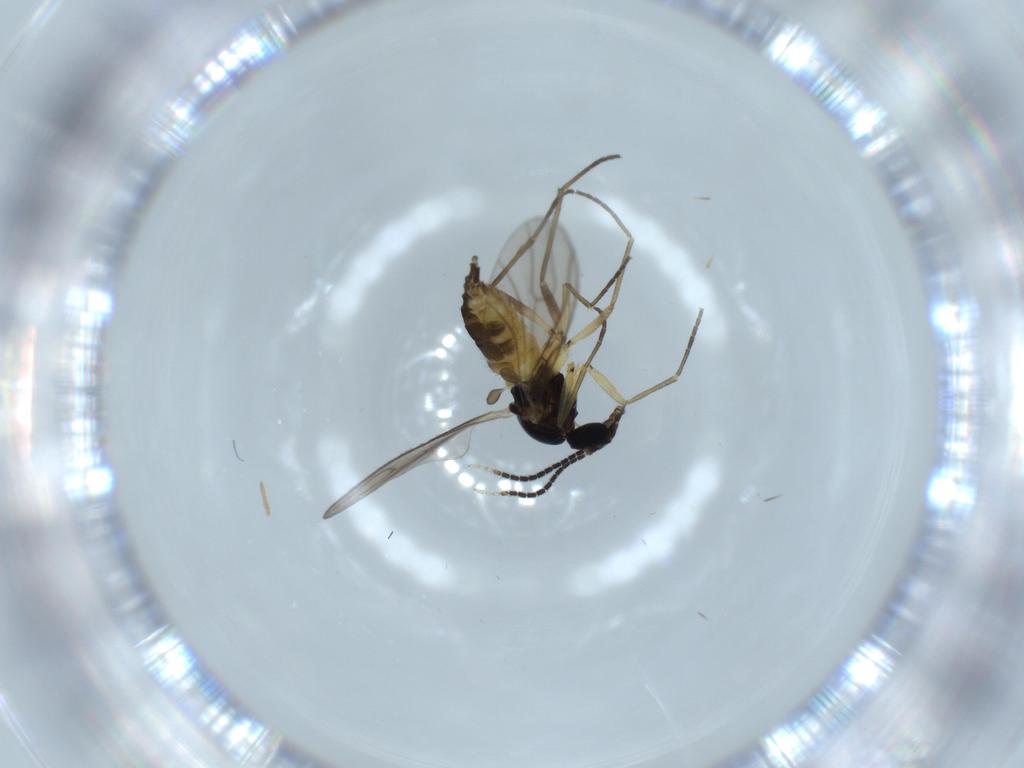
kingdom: Animalia
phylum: Arthropoda
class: Insecta
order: Diptera
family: Sciaridae
